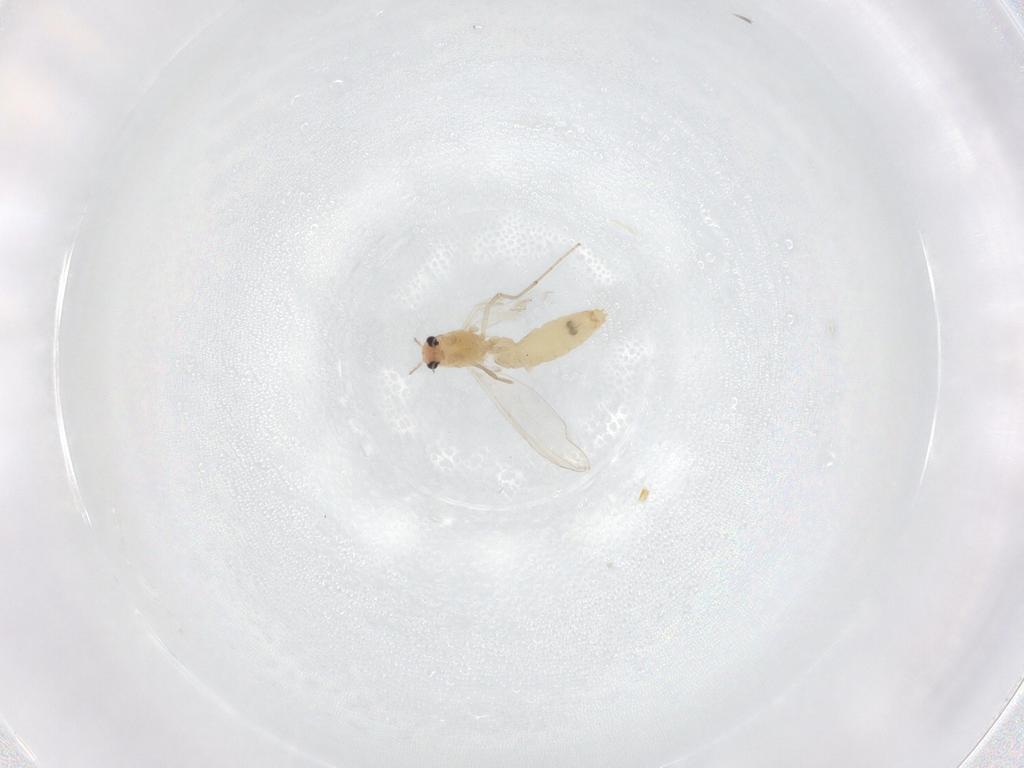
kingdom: Animalia
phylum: Arthropoda
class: Insecta
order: Diptera
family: Chironomidae
